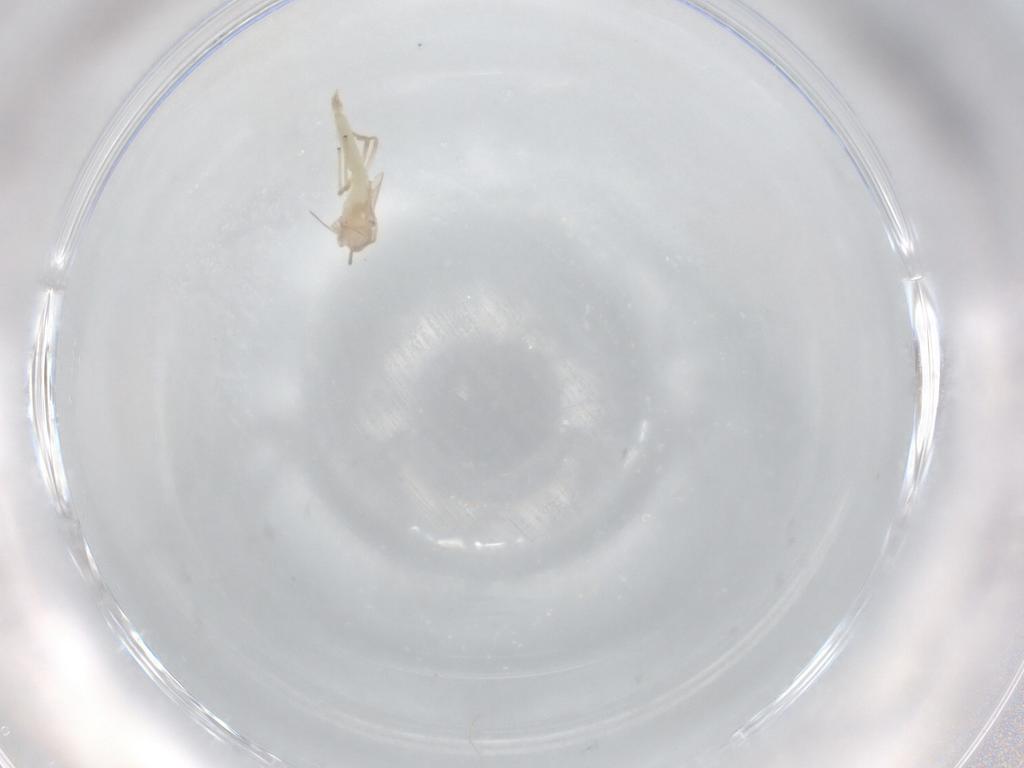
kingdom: Animalia
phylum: Arthropoda
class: Insecta
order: Diptera
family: Chironomidae
